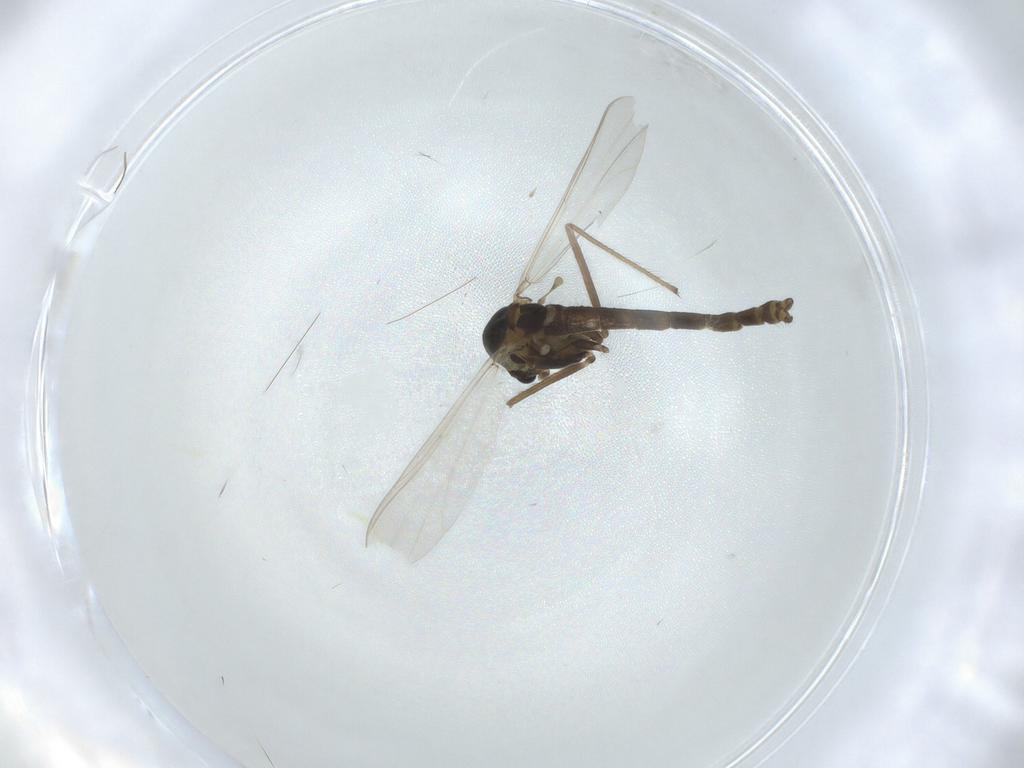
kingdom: Animalia
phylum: Arthropoda
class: Insecta
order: Diptera
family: Chironomidae
